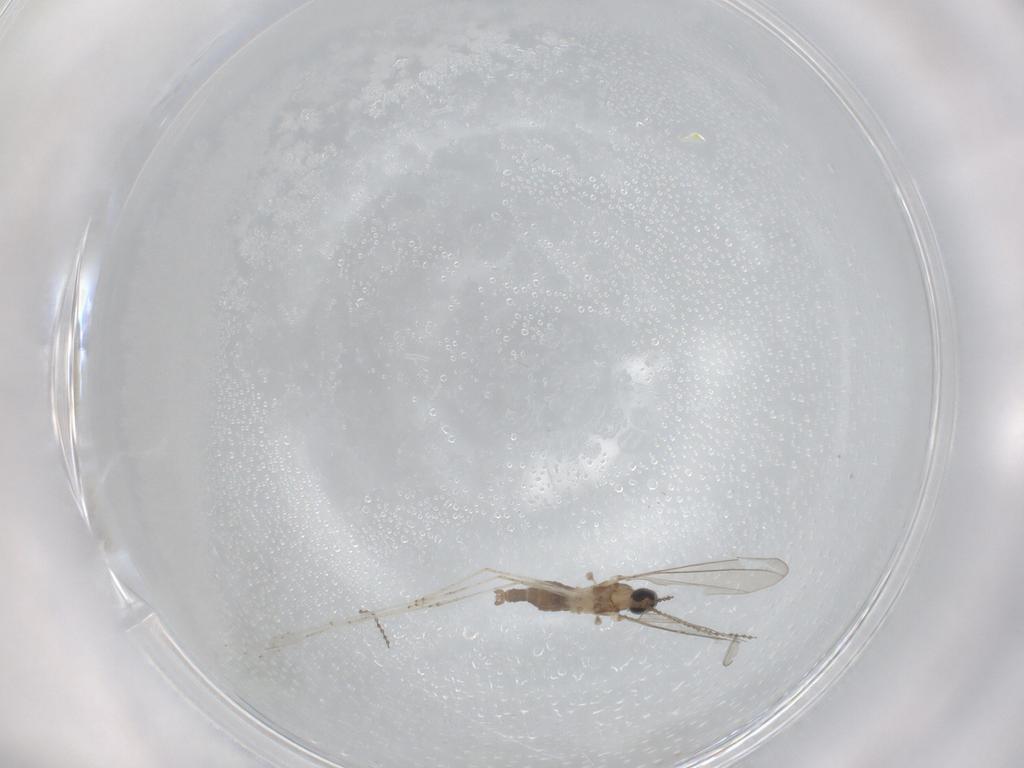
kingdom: Animalia
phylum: Arthropoda
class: Insecta
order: Diptera
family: Cecidomyiidae
